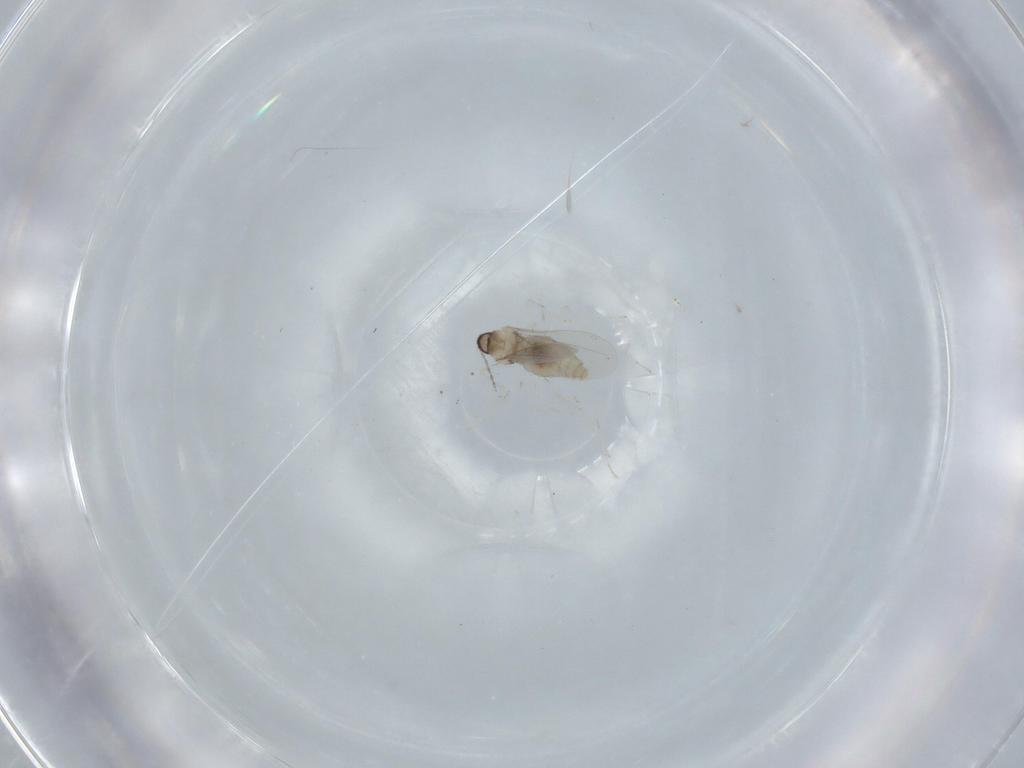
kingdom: Animalia
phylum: Arthropoda
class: Insecta
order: Diptera
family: Cecidomyiidae
